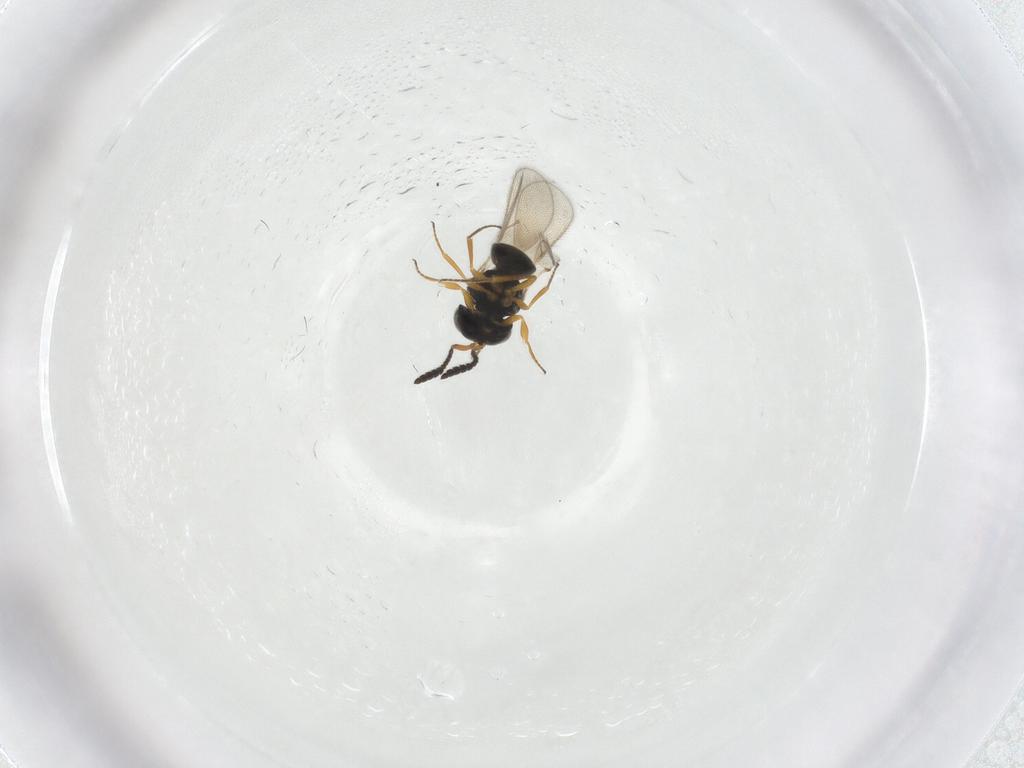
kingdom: Animalia
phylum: Arthropoda
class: Insecta
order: Hymenoptera
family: Scelionidae
